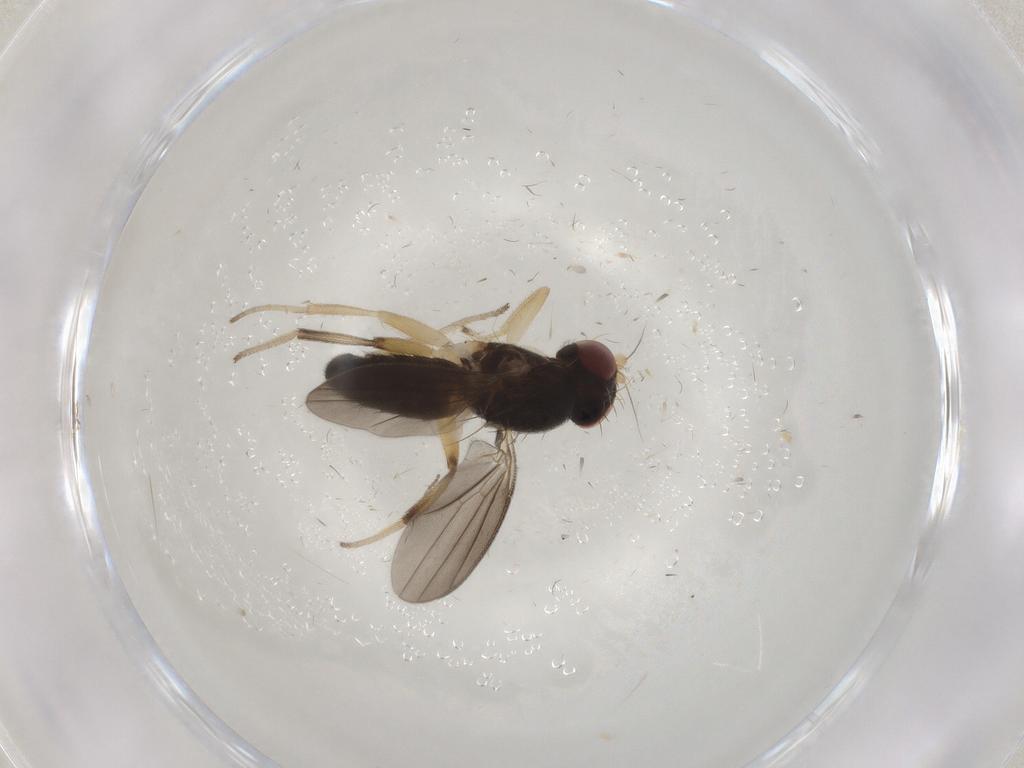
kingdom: Animalia
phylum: Arthropoda
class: Insecta
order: Diptera
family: Clusiidae
